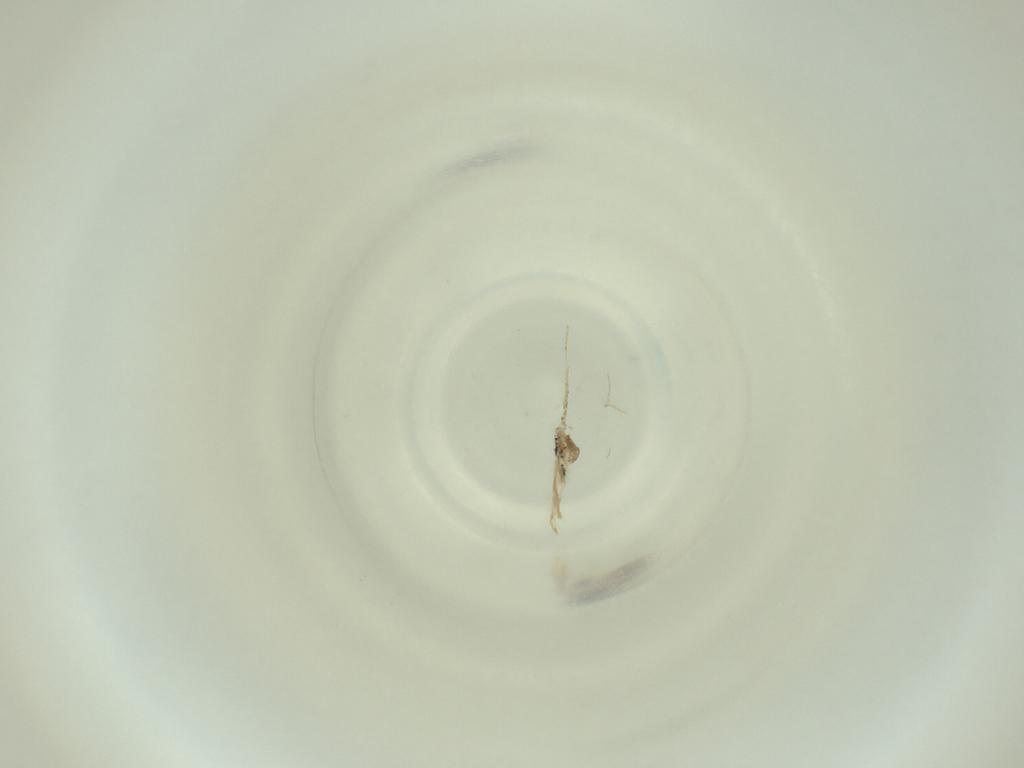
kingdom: Animalia
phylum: Arthropoda
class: Insecta
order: Diptera
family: Cecidomyiidae
